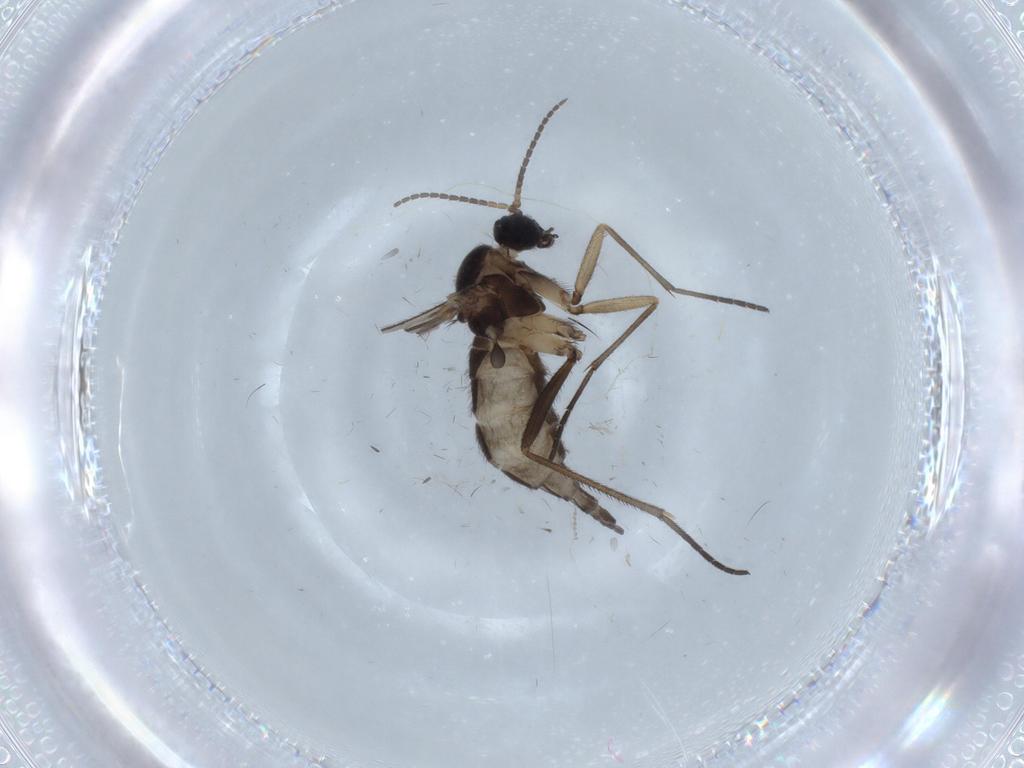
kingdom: Animalia
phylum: Arthropoda
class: Insecta
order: Diptera
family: Sciaridae
